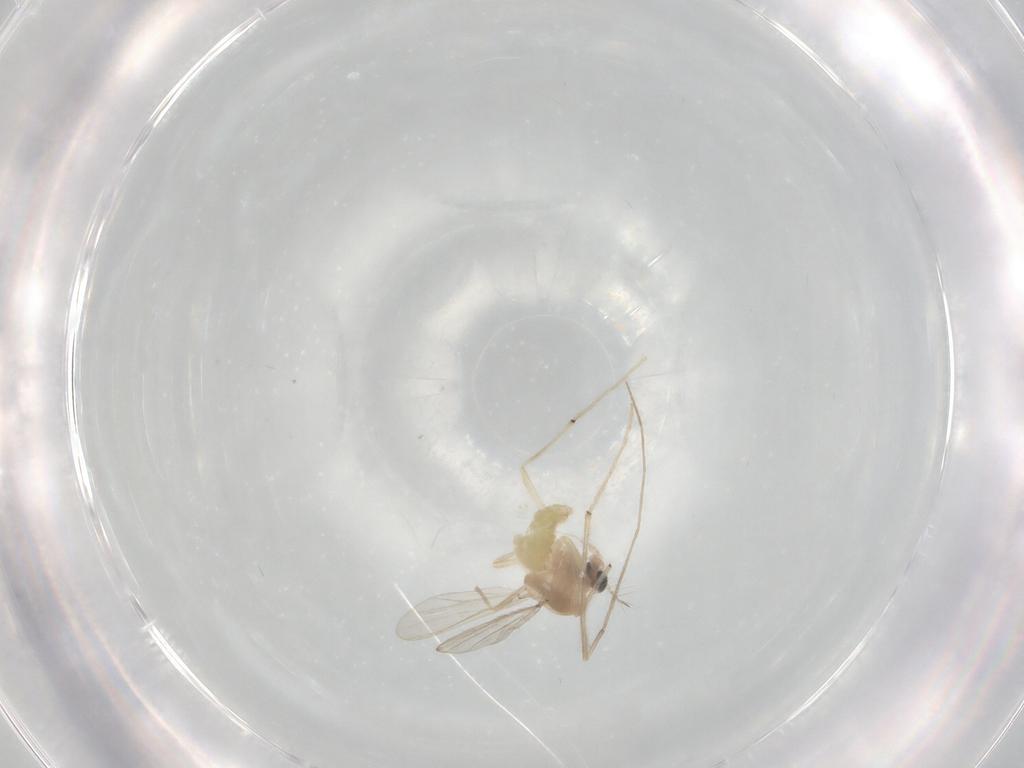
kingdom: Animalia
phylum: Arthropoda
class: Insecta
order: Diptera
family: Chironomidae
